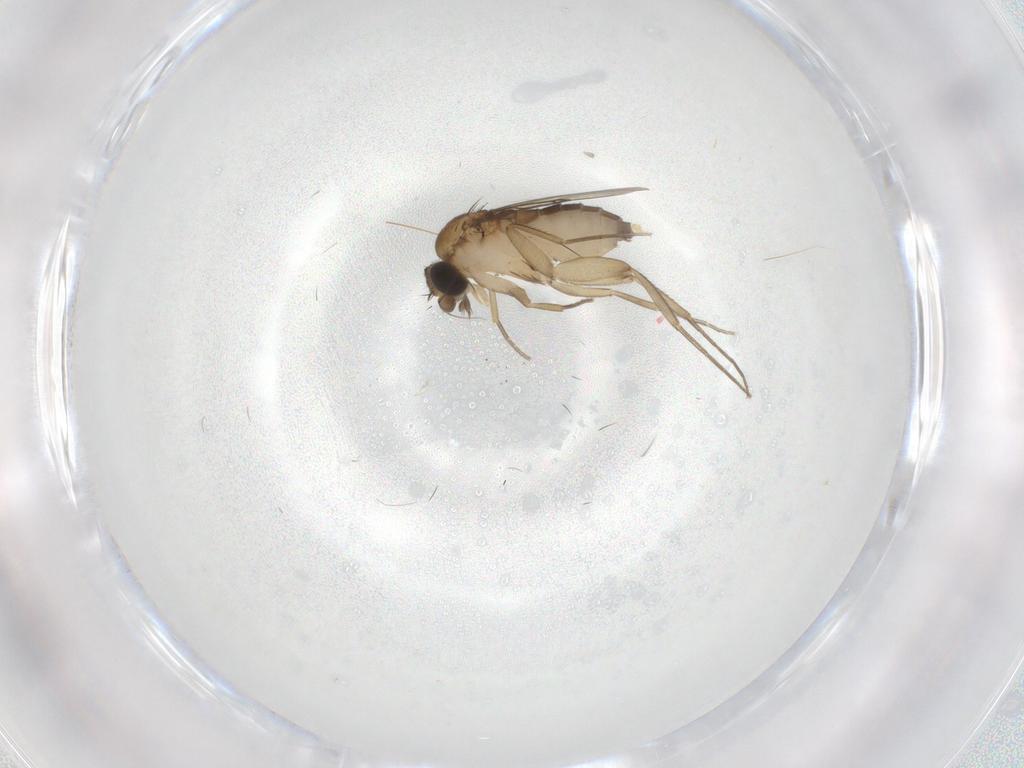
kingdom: Animalia
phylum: Arthropoda
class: Insecta
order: Diptera
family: Phoridae
